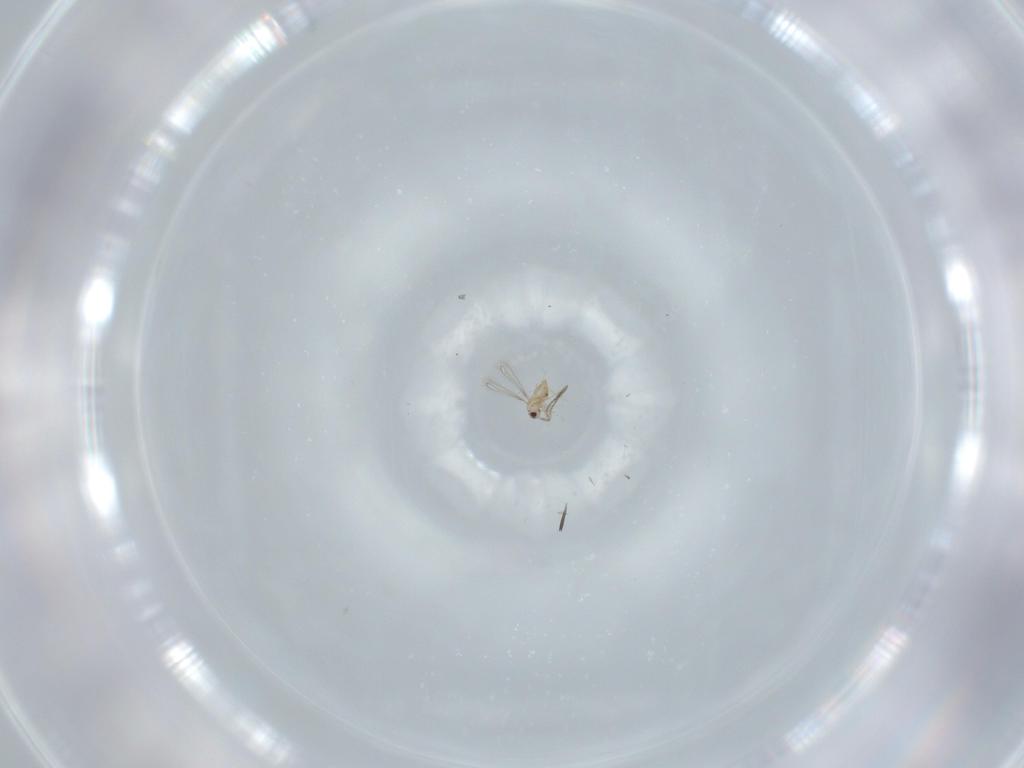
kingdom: Animalia
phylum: Arthropoda
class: Insecta
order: Hymenoptera
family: Mymaridae
